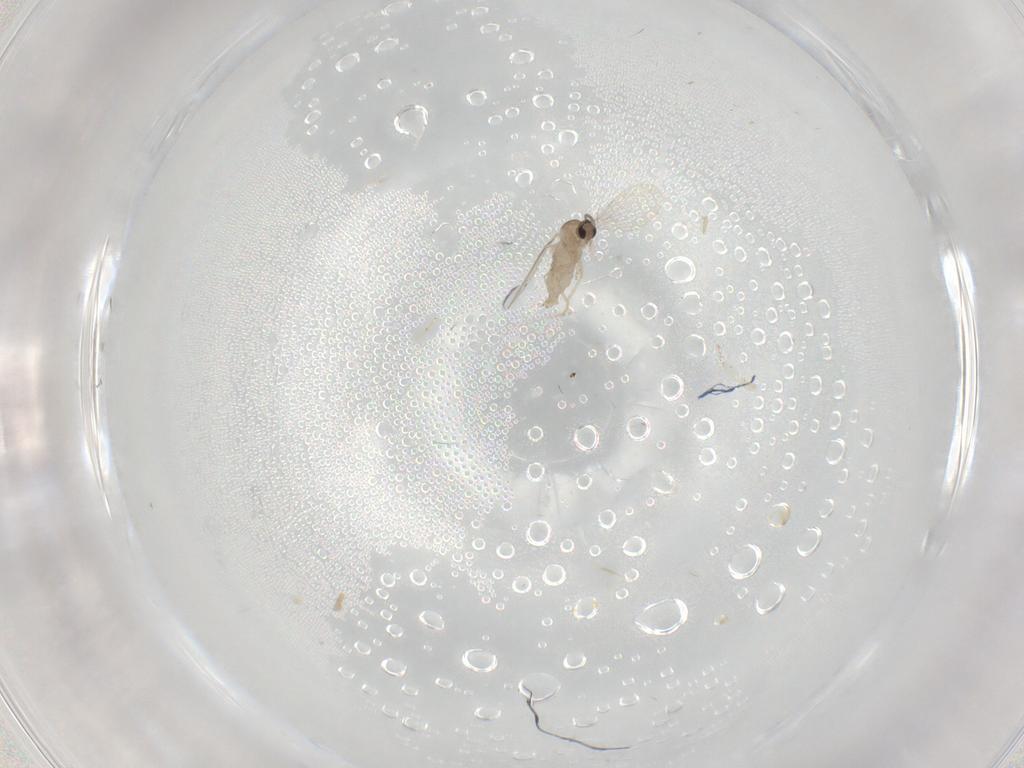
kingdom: Animalia
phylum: Arthropoda
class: Insecta
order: Diptera
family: Cecidomyiidae
